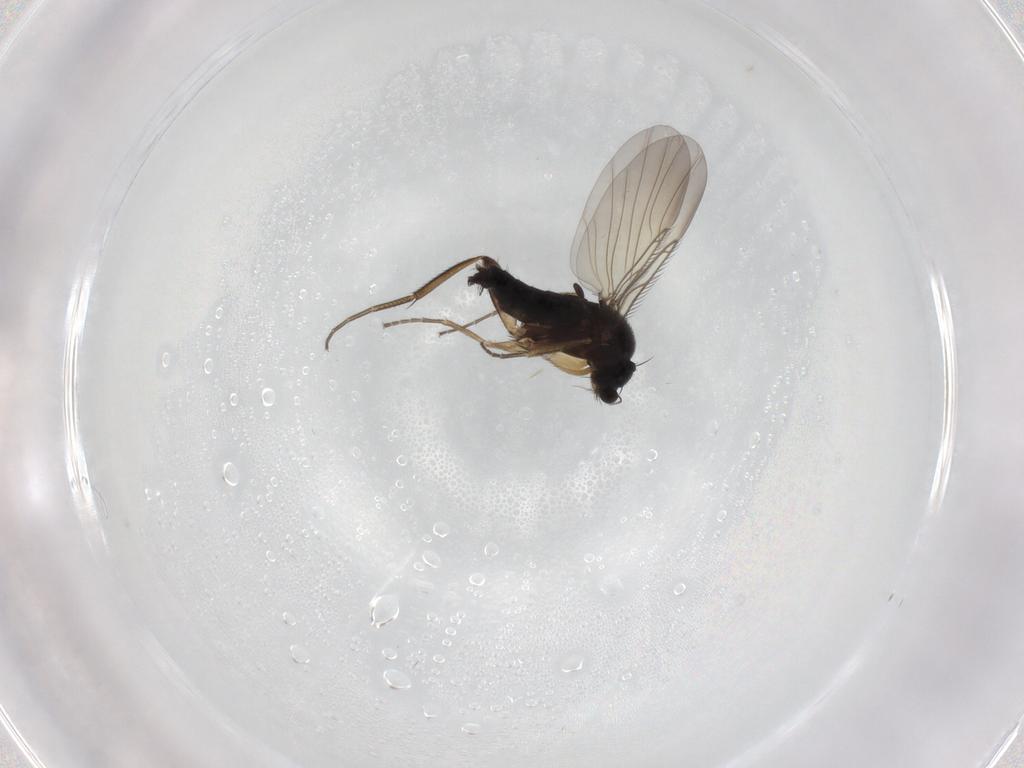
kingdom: Animalia
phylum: Arthropoda
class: Insecta
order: Diptera
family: Phoridae
